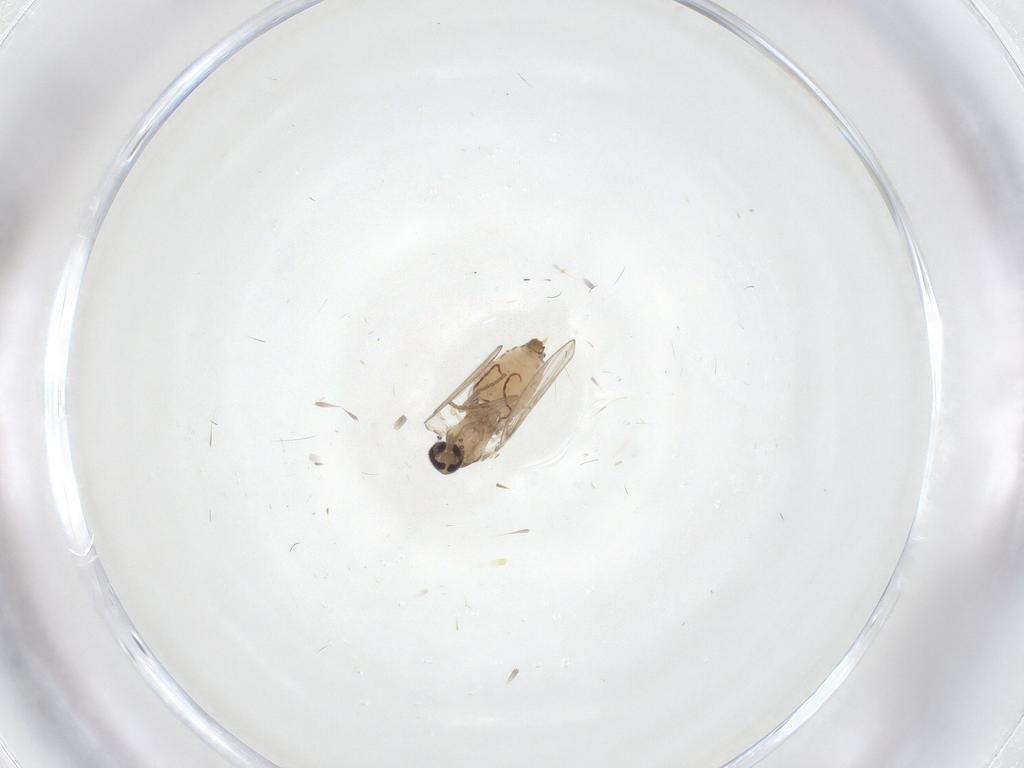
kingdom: Animalia
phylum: Arthropoda
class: Insecta
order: Diptera
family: Psychodidae
